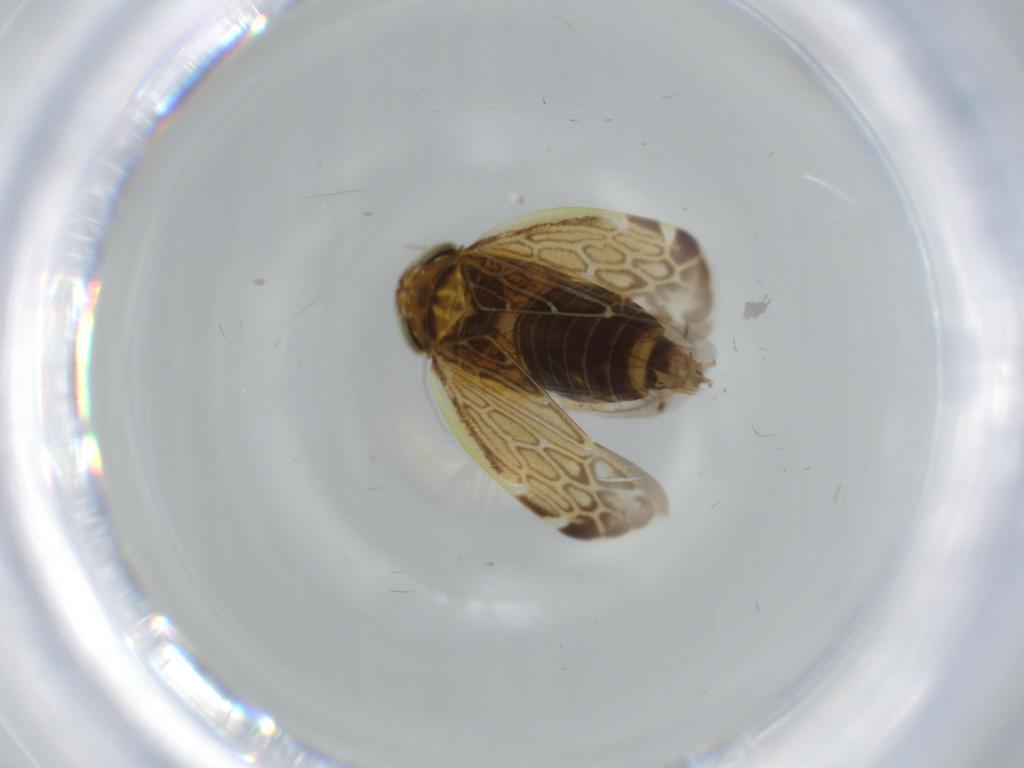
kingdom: Animalia
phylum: Arthropoda
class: Insecta
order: Hemiptera
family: Cicadellidae
